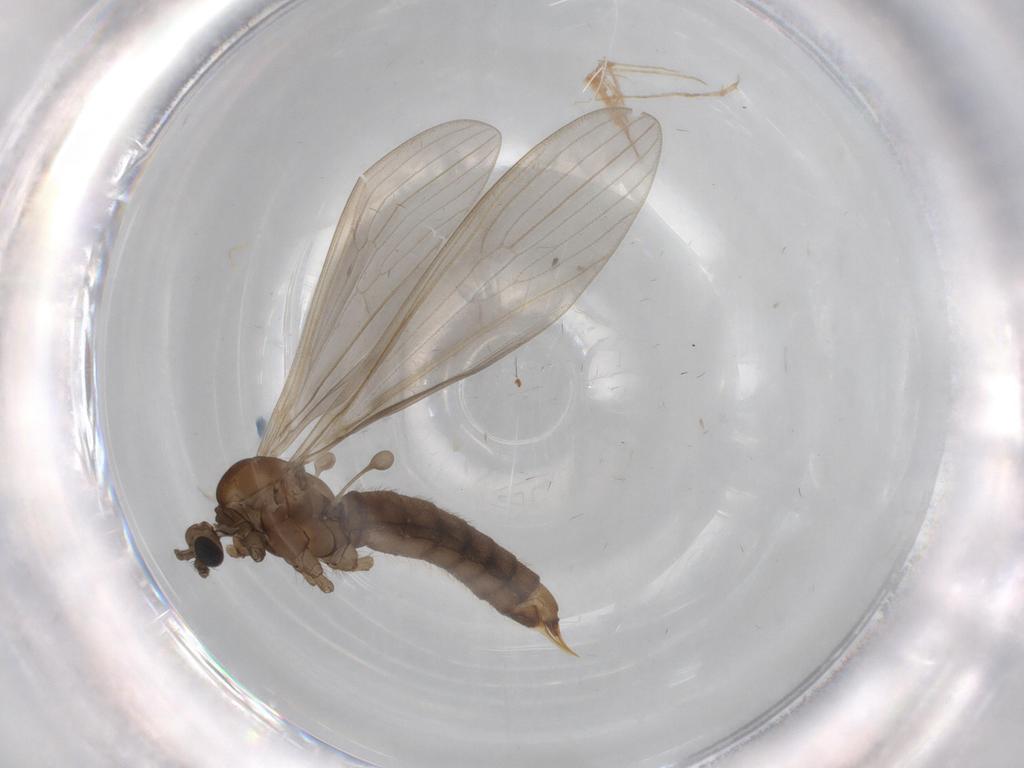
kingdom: Animalia
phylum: Arthropoda
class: Insecta
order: Diptera
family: Limoniidae
